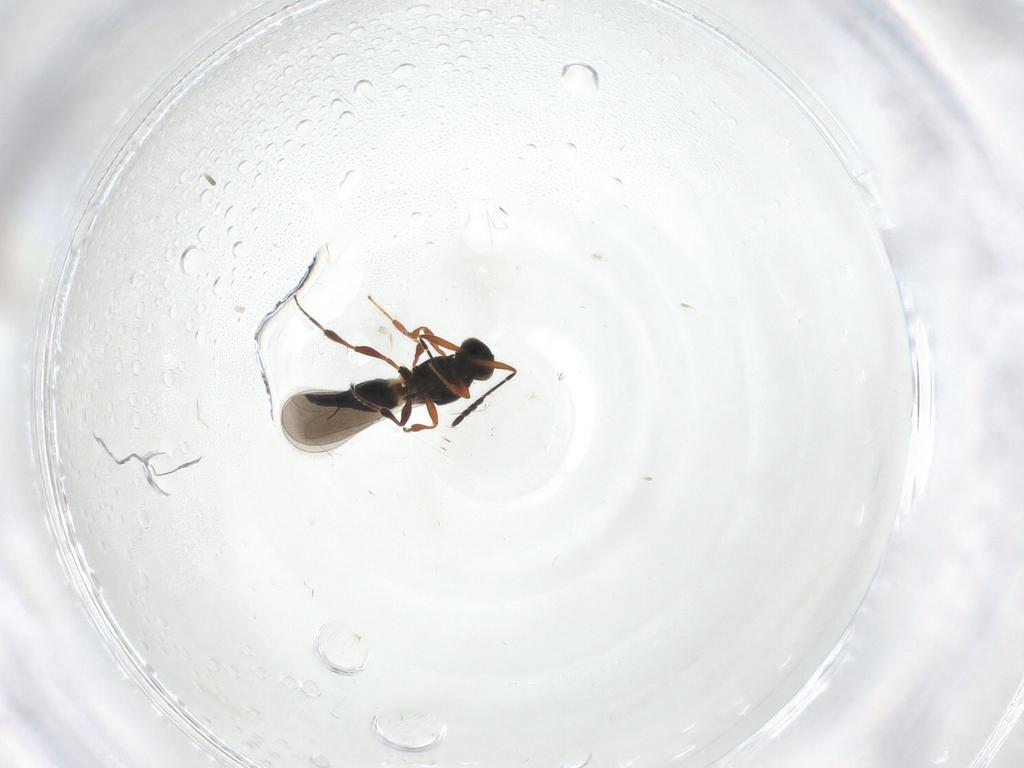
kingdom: Animalia
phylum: Arthropoda
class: Insecta
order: Hymenoptera
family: Platygastridae
